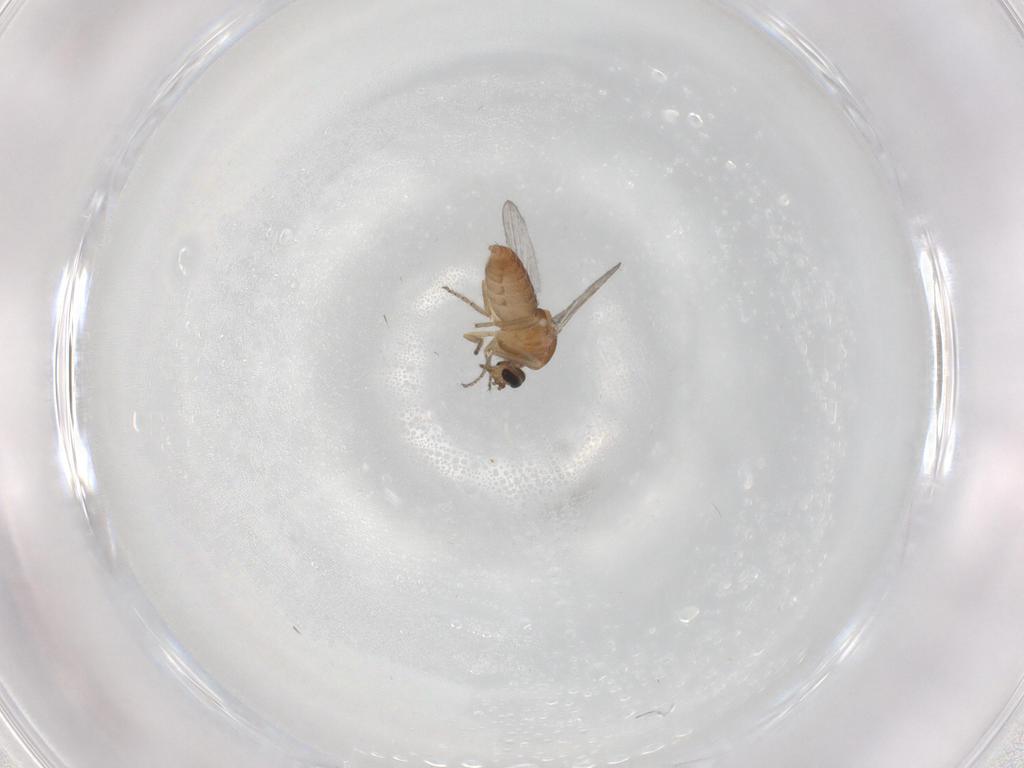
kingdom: Animalia
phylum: Arthropoda
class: Insecta
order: Diptera
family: Ceratopogonidae
